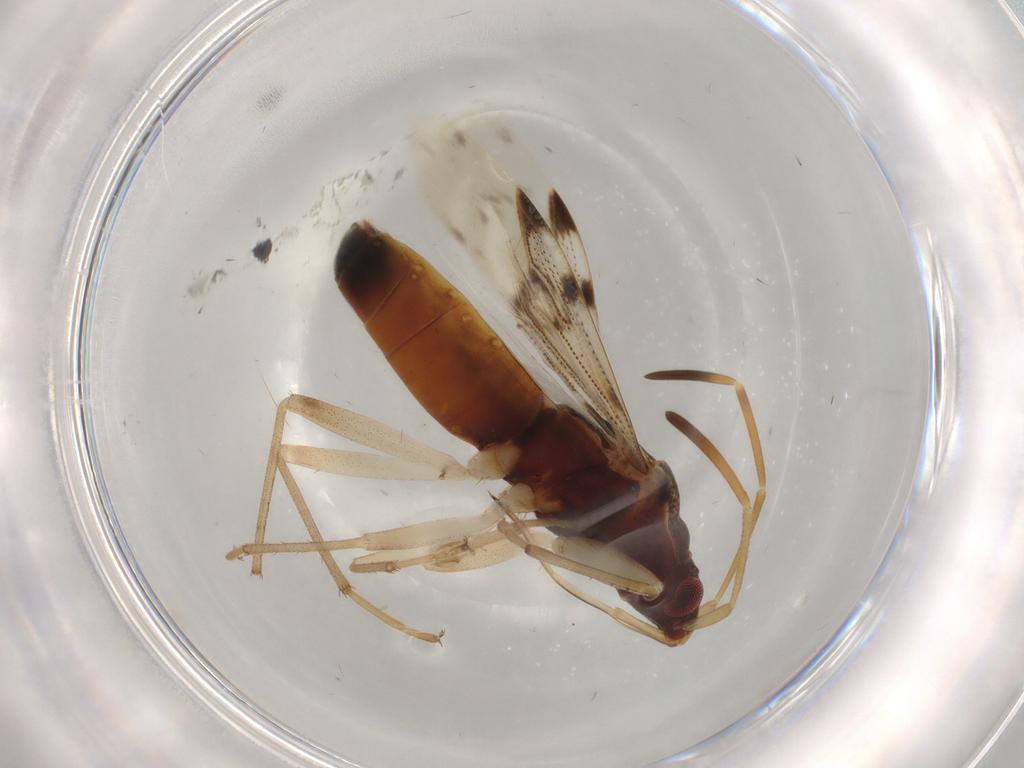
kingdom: Animalia
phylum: Arthropoda
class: Insecta
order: Hemiptera
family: Rhyparochromidae
